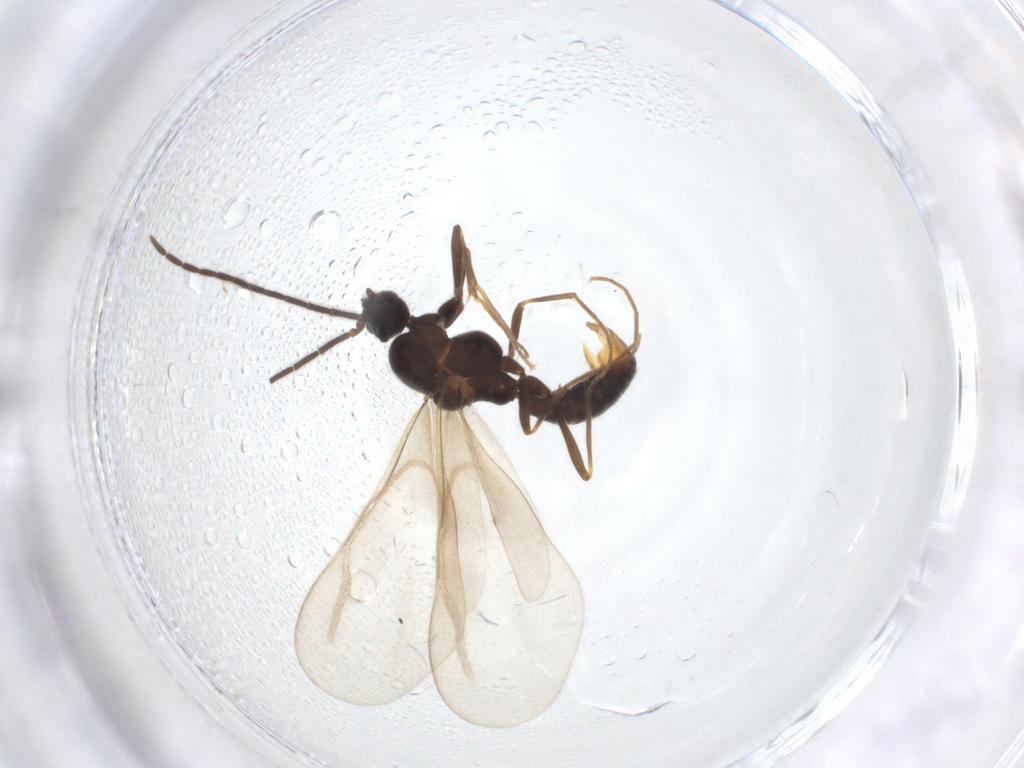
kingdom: Animalia
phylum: Arthropoda
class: Insecta
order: Hymenoptera
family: Formicidae
